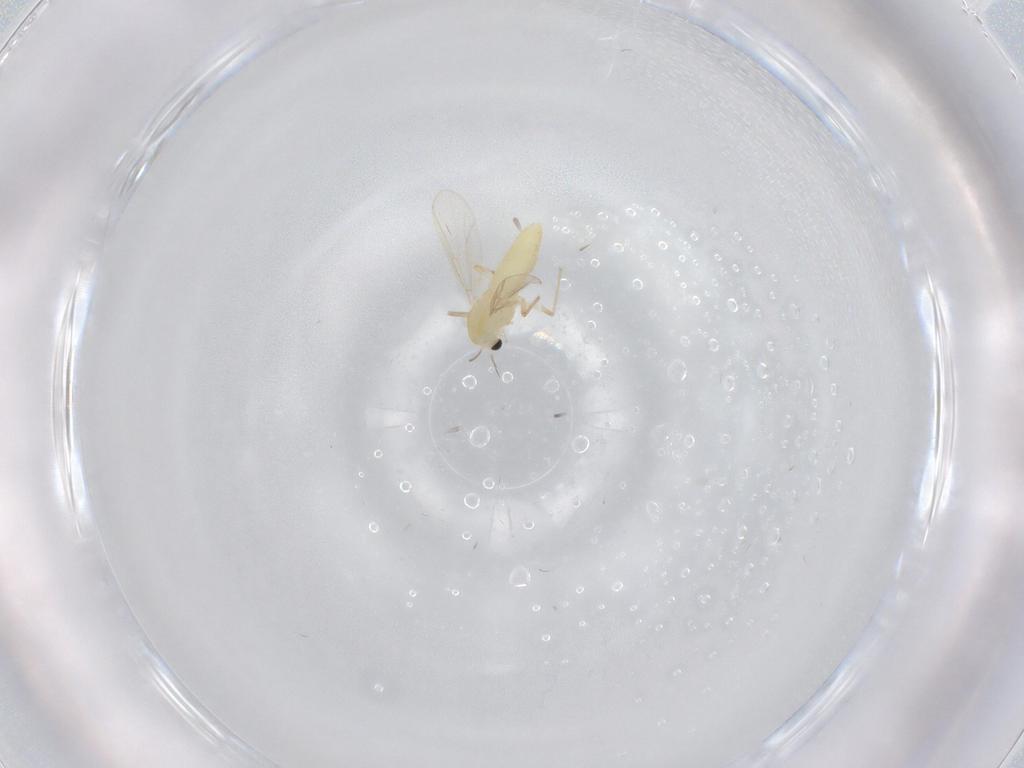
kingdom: Animalia
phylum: Arthropoda
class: Insecta
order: Diptera
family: Chironomidae
